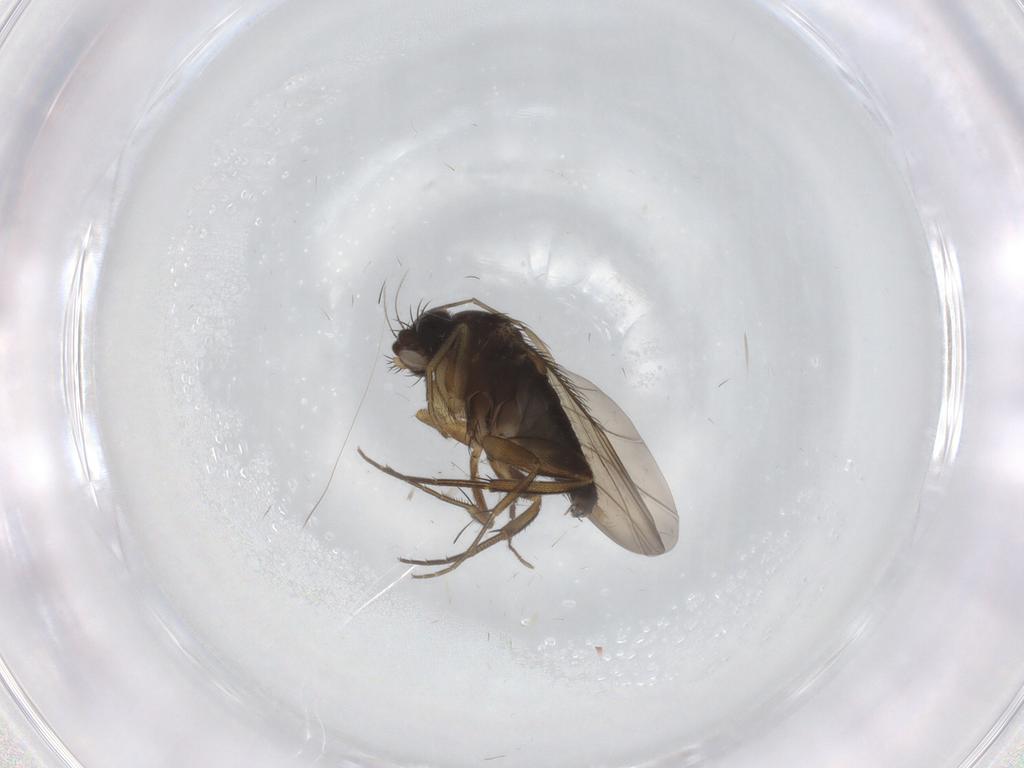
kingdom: Animalia
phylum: Arthropoda
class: Insecta
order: Diptera
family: Phoridae
